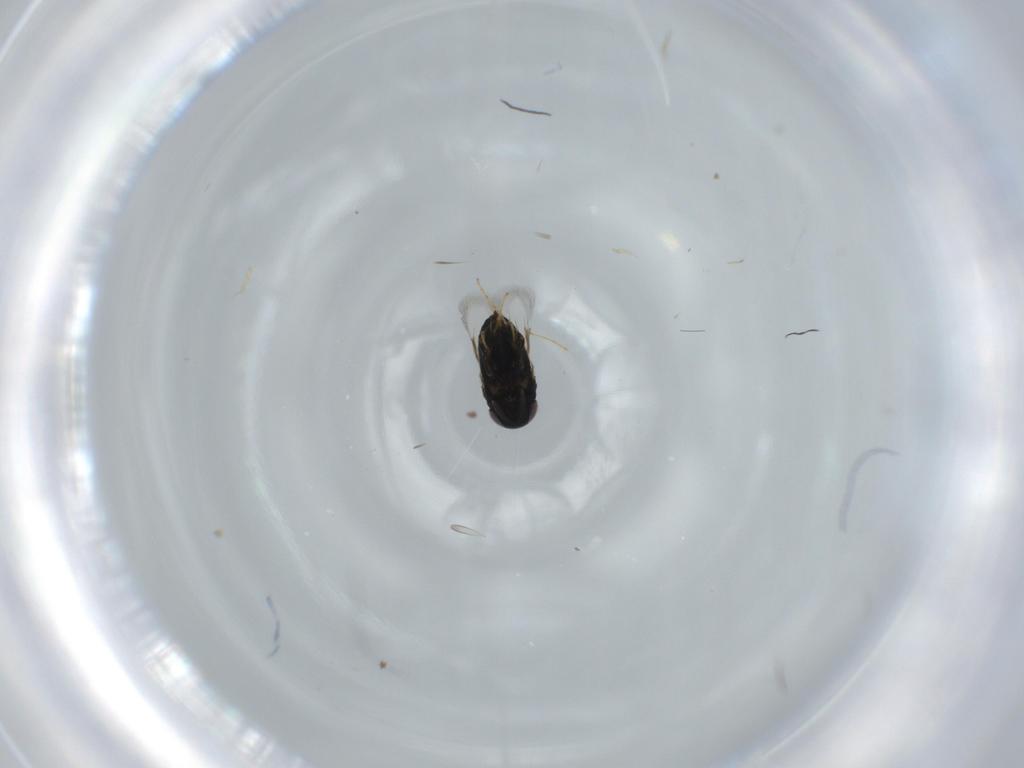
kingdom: Animalia
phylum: Arthropoda
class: Insecta
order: Hymenoptera
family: Signiphoridae
